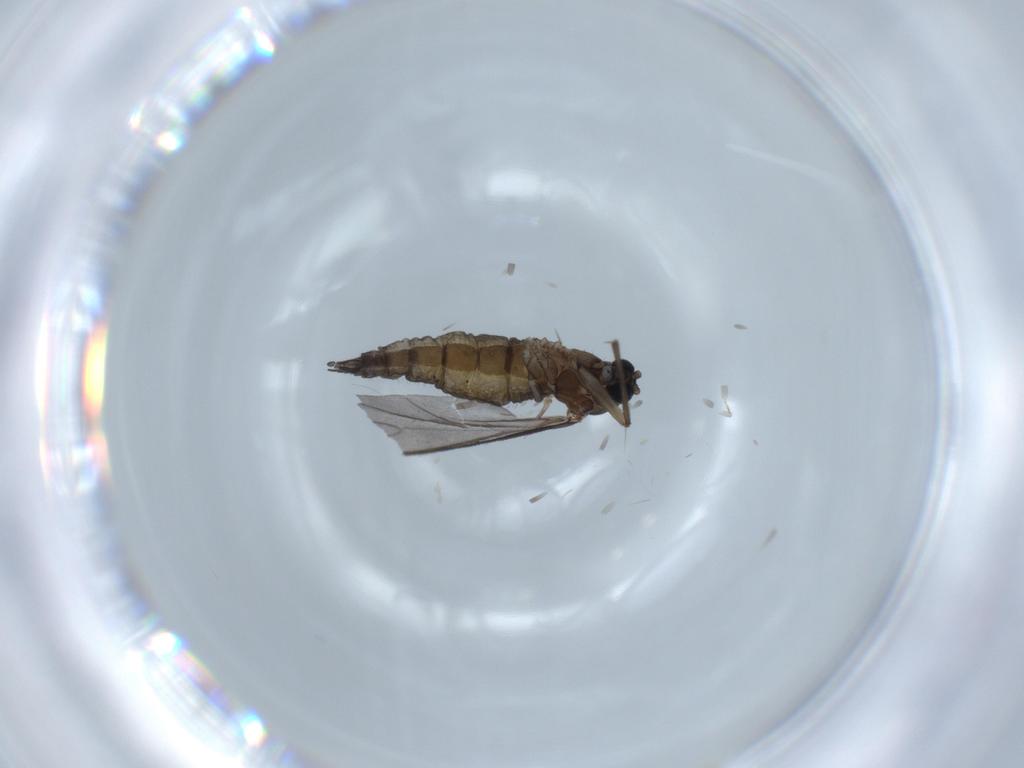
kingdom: Animalia
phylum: Arthropoda
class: Insecta
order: Diptera
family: Sciaridae
